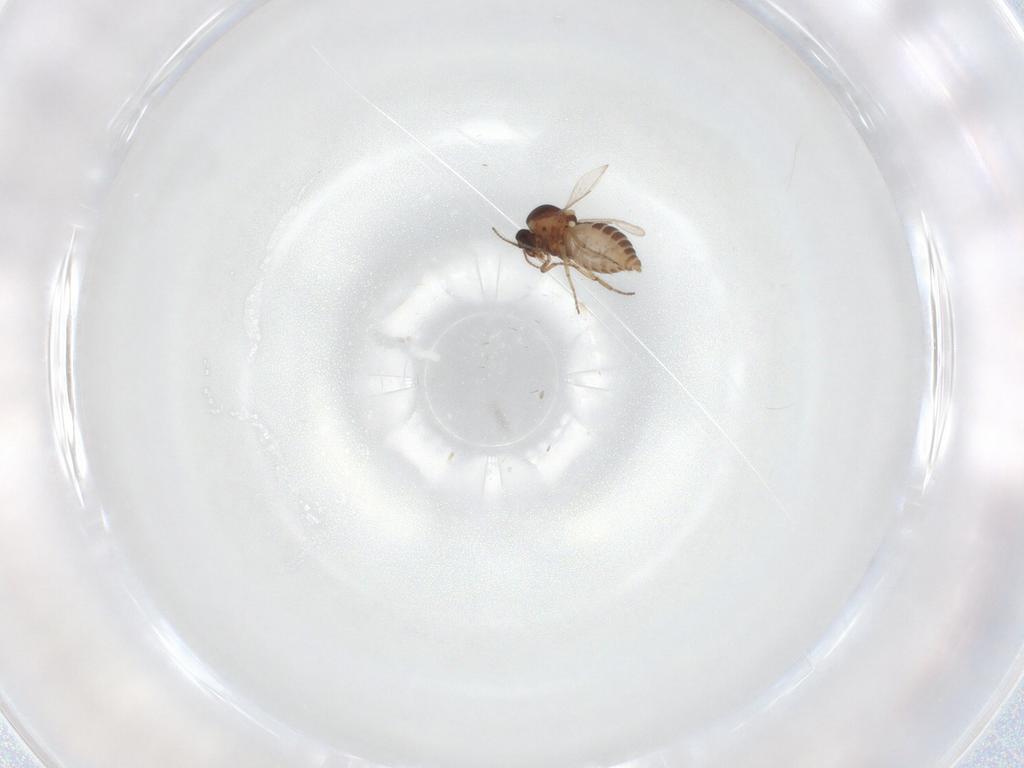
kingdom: Animalia
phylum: Arthropoda
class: Insecta
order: Diptera
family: Ceratopogonidae
